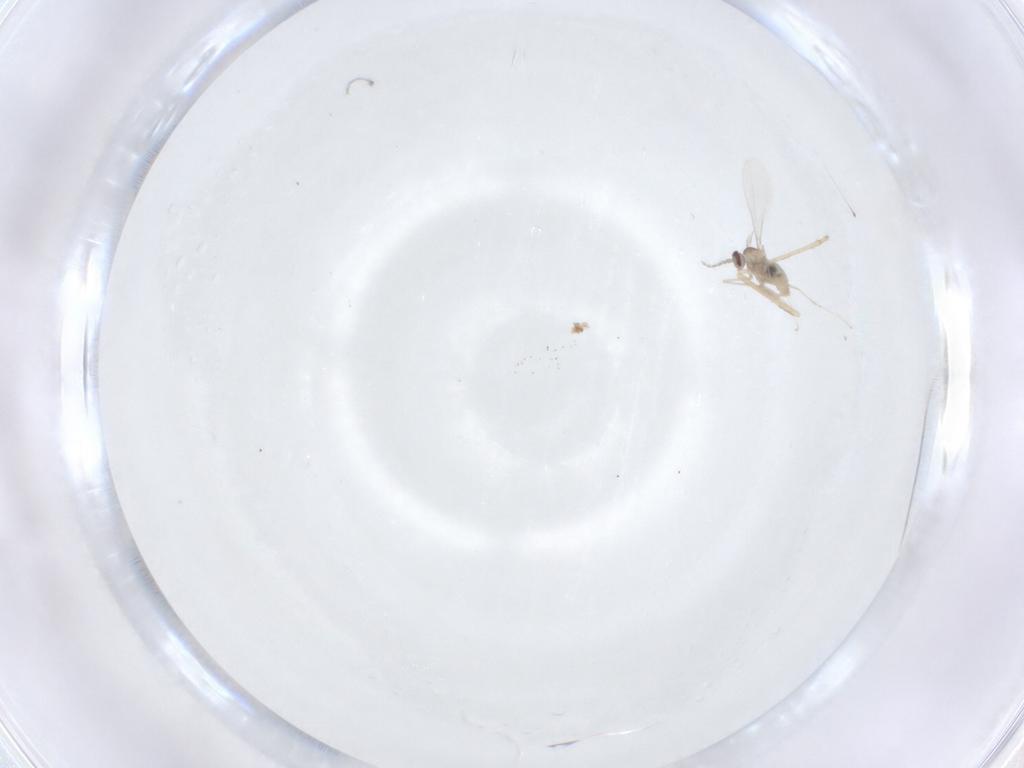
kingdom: Animalia
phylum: Arthropoda
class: Insecta
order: Diptera
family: Cecidomyiidae
